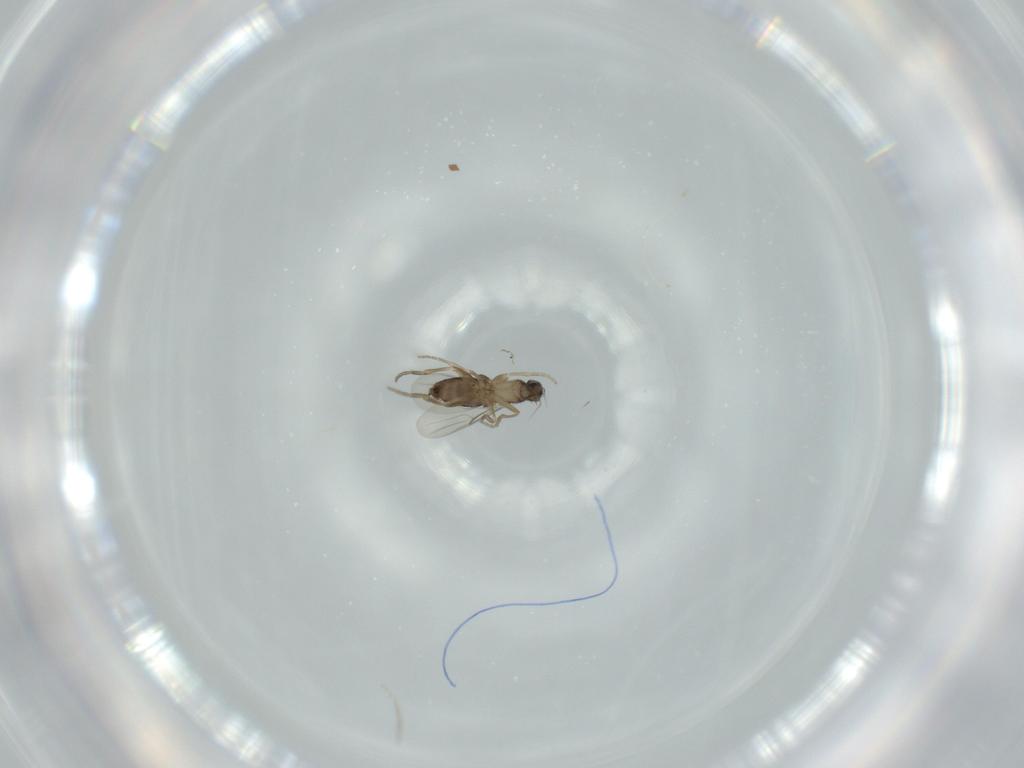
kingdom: Animalia
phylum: Arthropoda
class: Insecta
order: Diptera
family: Phoridae
